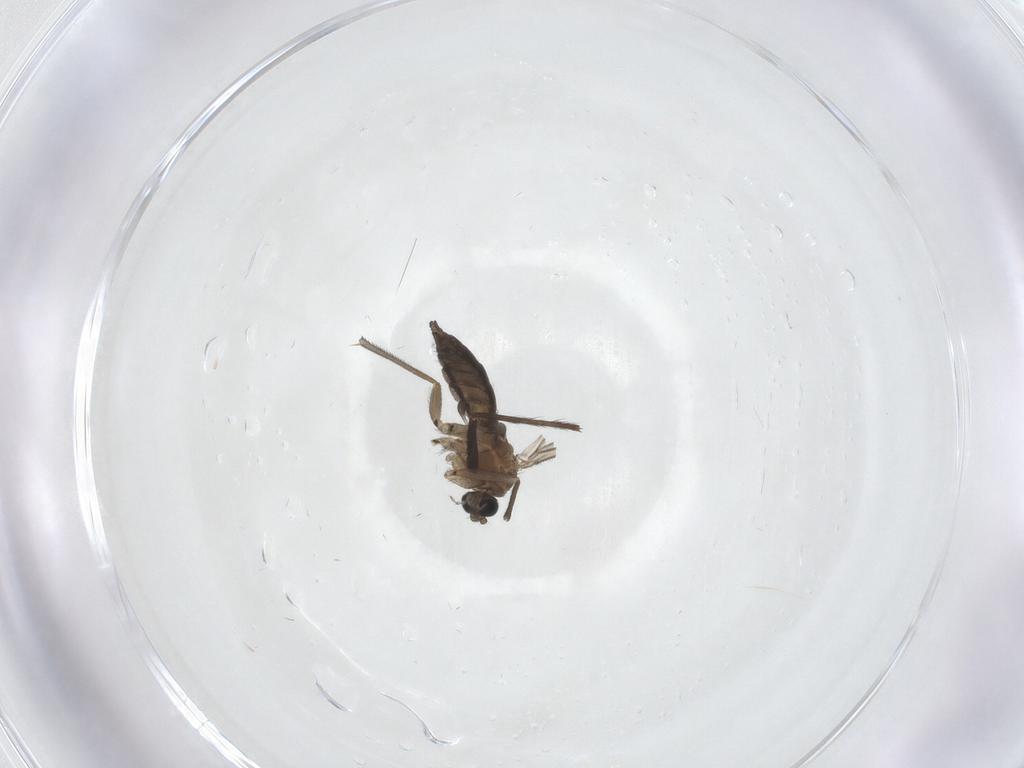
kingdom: Animalia
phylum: Arthropoda
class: Insecta
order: Diptera
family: Sciaridae
